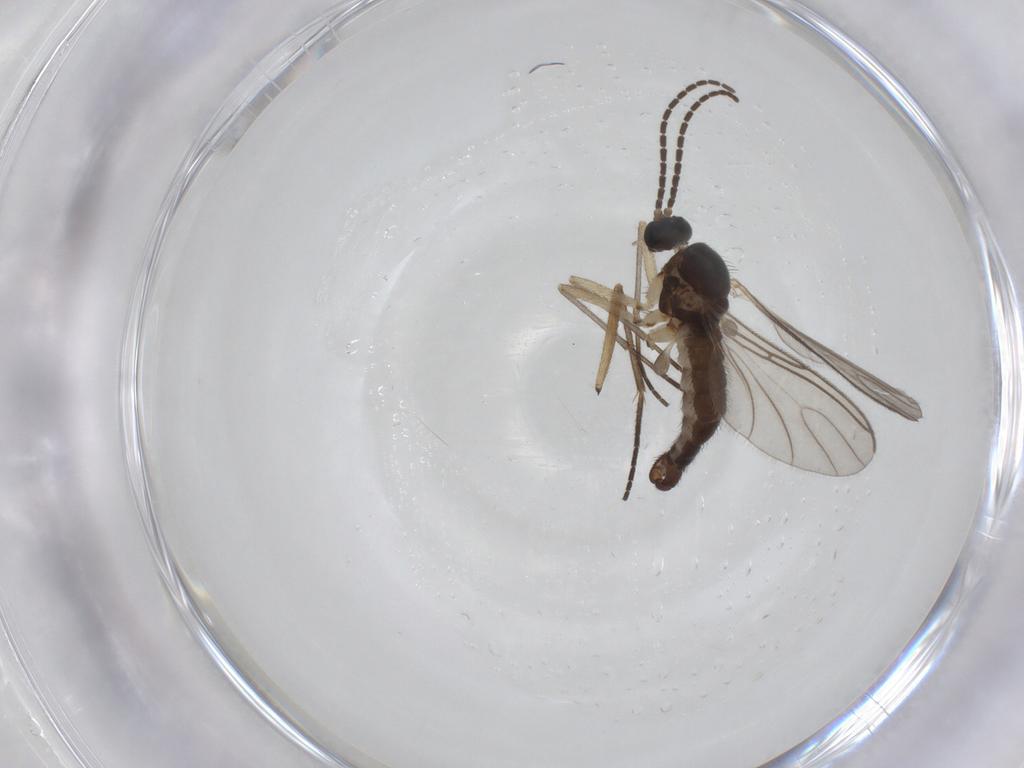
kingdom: Animalia
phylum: Arthropoda
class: Insecta
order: Diptera
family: Sciaridae
